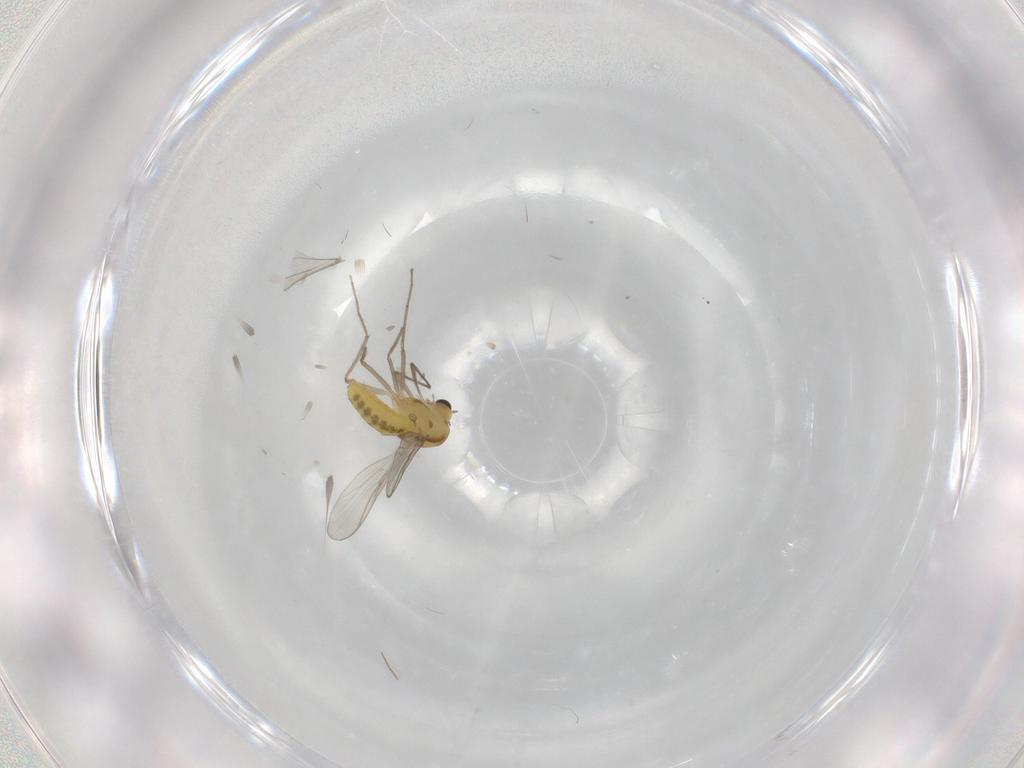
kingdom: Animalia
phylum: Arthropoda
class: Insecta
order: Diptera
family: Chironomidae
